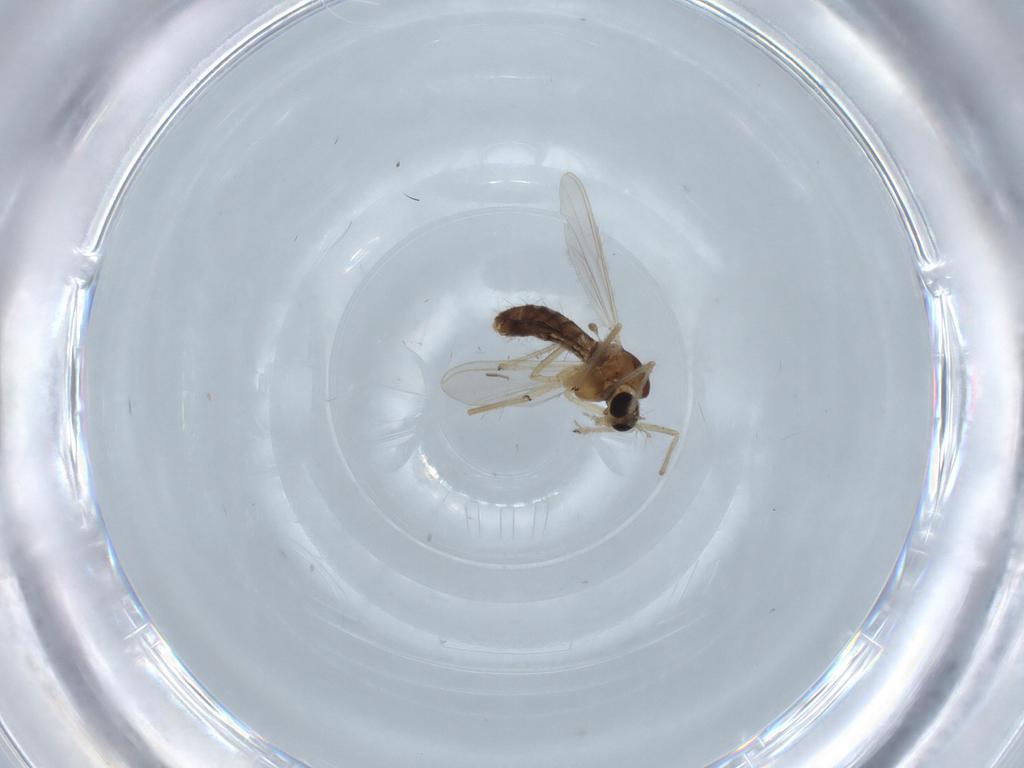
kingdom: Animalia
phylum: Arthropoda
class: Insecta
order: Diptera
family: Chironomidae
